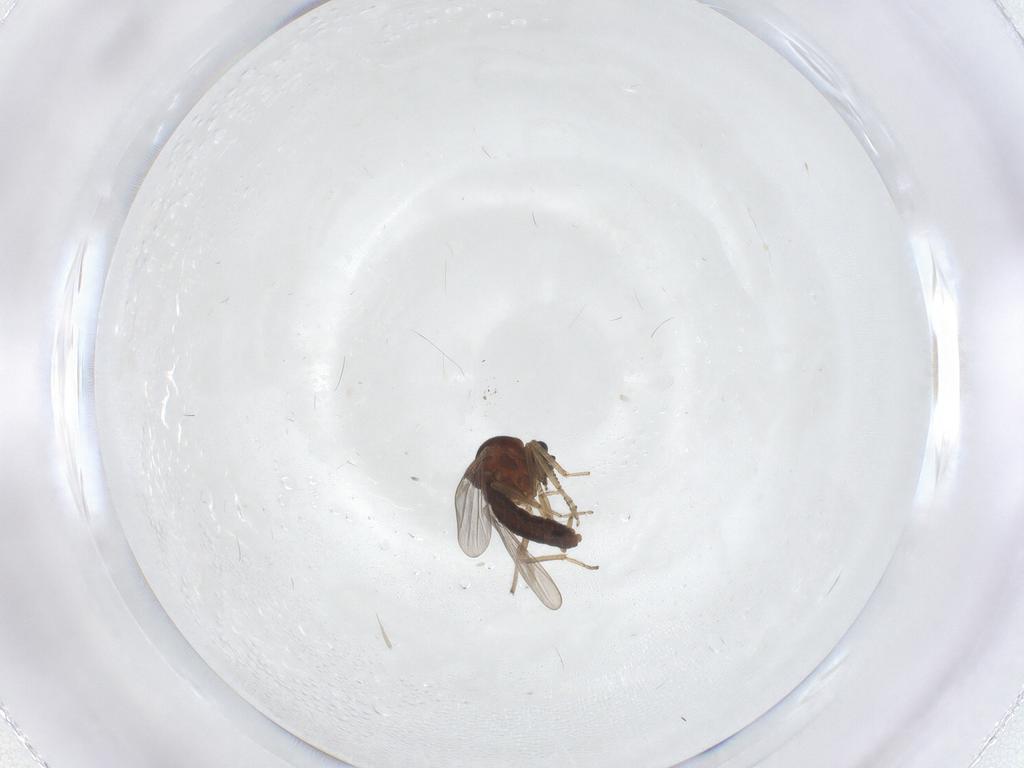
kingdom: Animalia
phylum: Arthropoda
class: Insecta
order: Diptera
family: Ceratopogonidae
